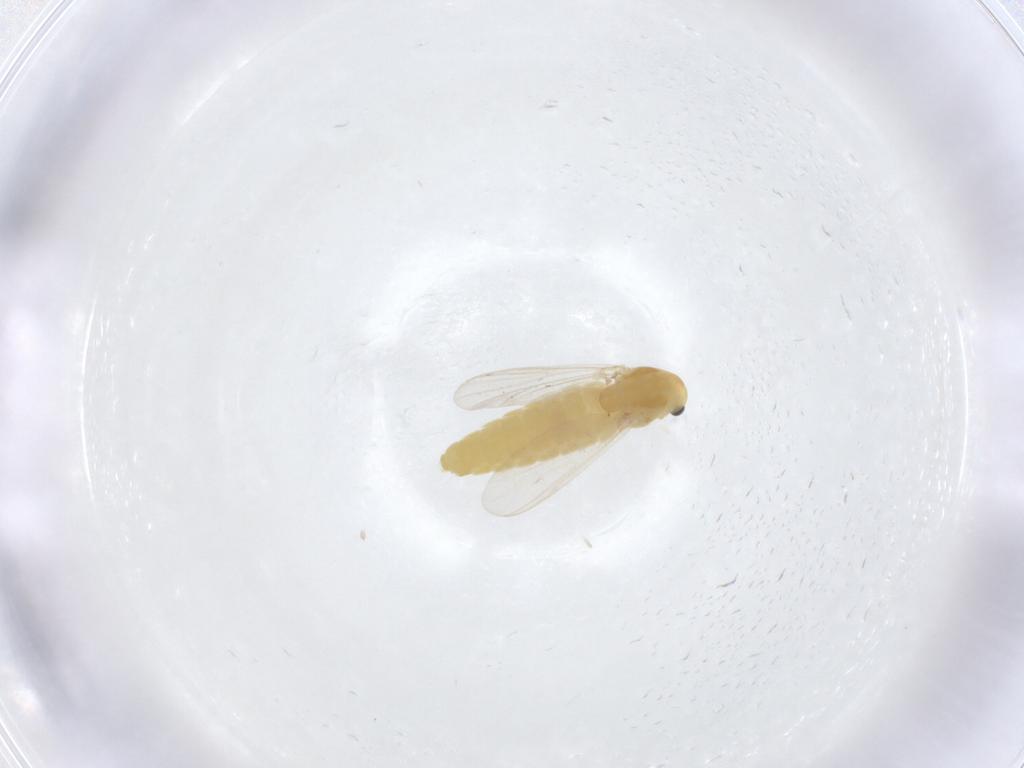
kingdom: Animalia
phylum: Arthropoda
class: Insecta
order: Diptera
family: Chironomidae
